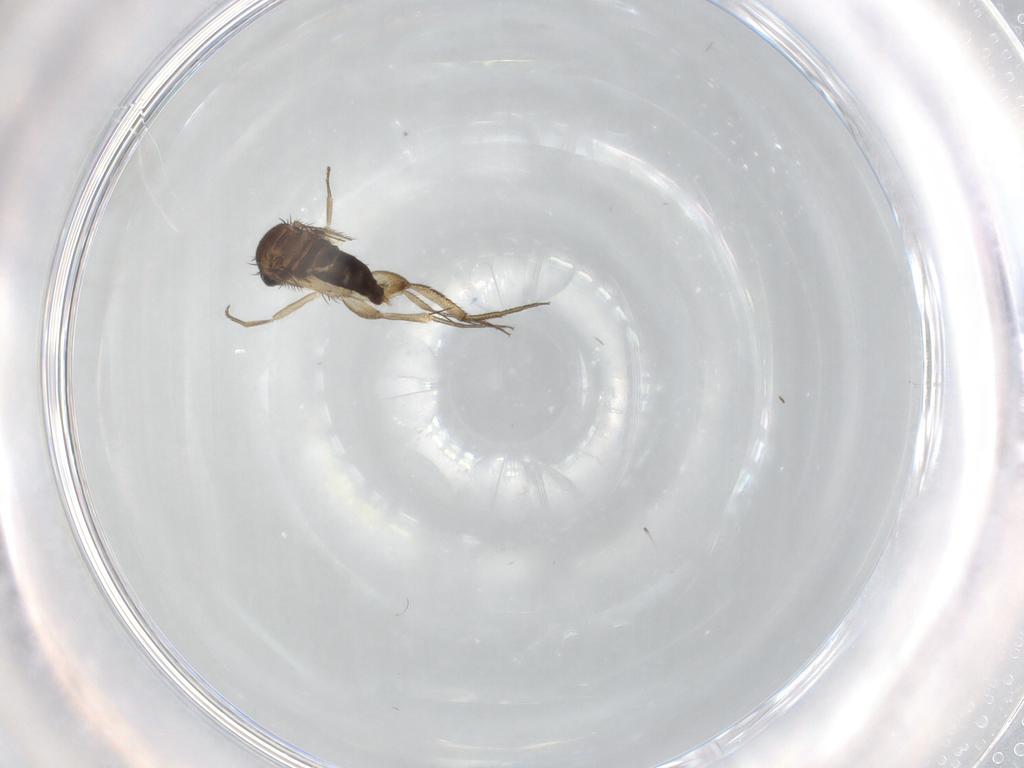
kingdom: Animalia
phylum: Arthropoda
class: Insecta
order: Diptera
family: Phoridae
